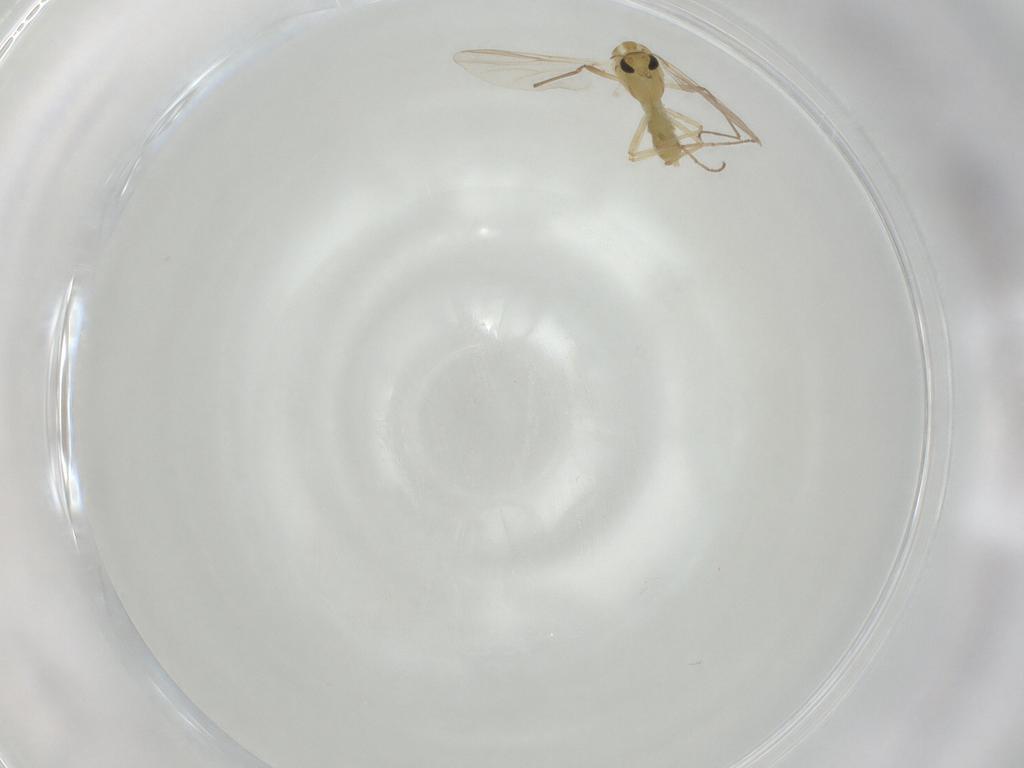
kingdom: Animalia
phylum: Arthropoda
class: Insecta
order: Diptera
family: Chironomidae
